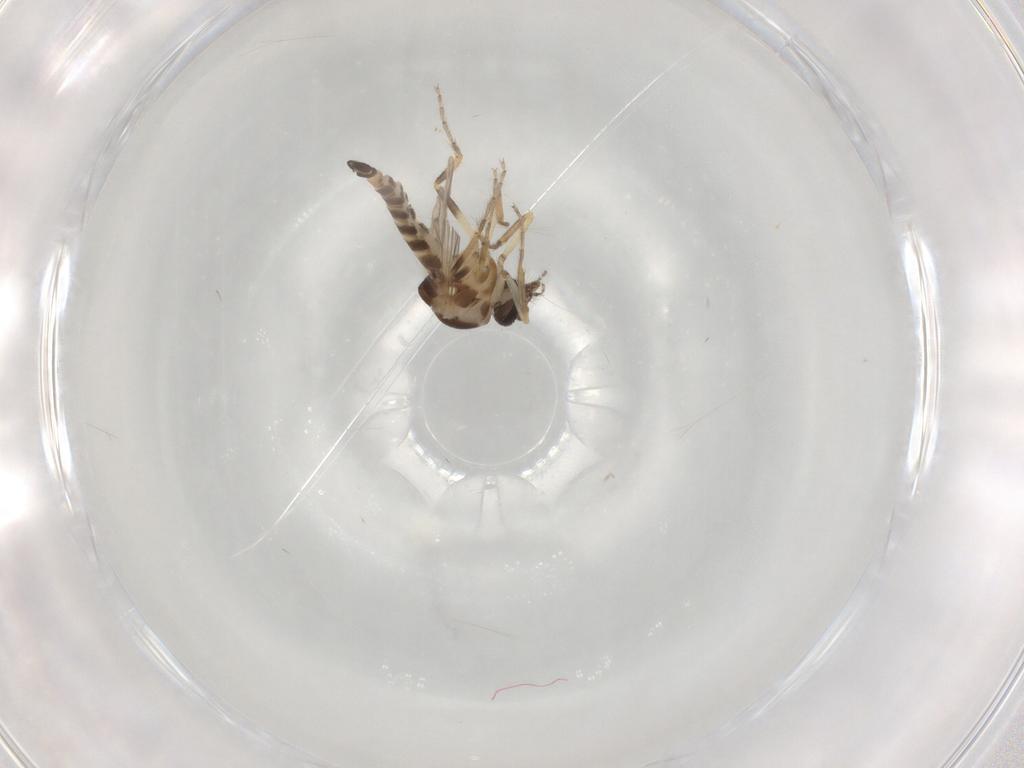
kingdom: Animalia
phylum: Arthropoda
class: Insecta
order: Diptera
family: Ceratopogonidae
